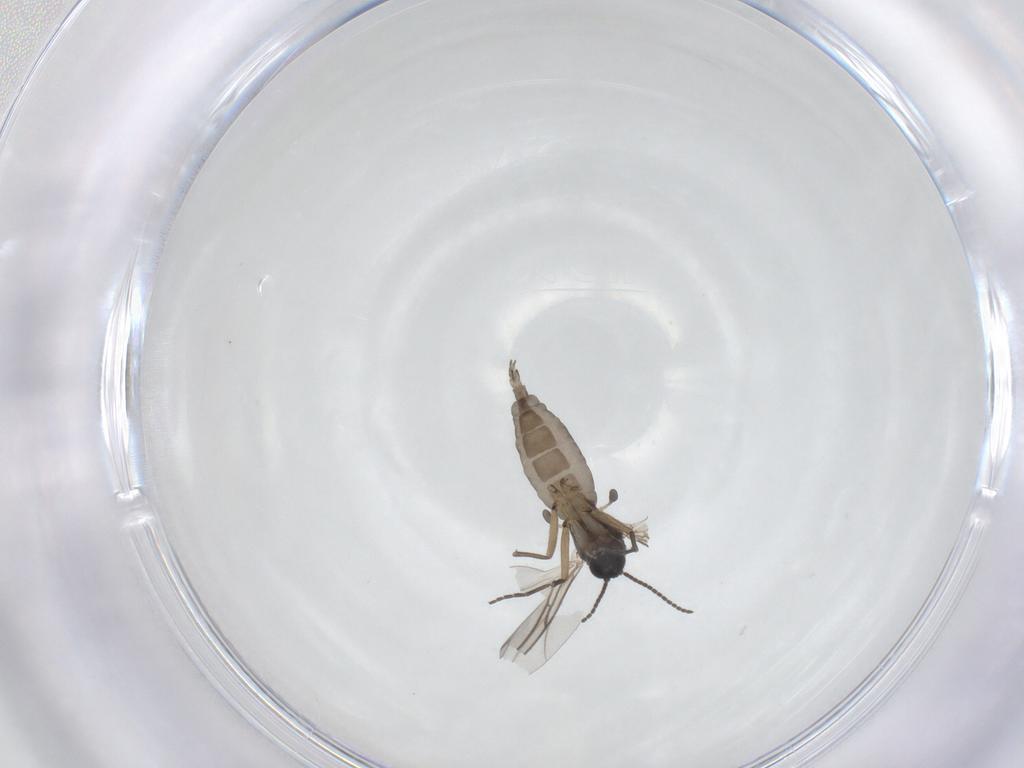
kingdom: Animalia
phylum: Arthropoda
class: Insecta
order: Diptera
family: Sciaridae
